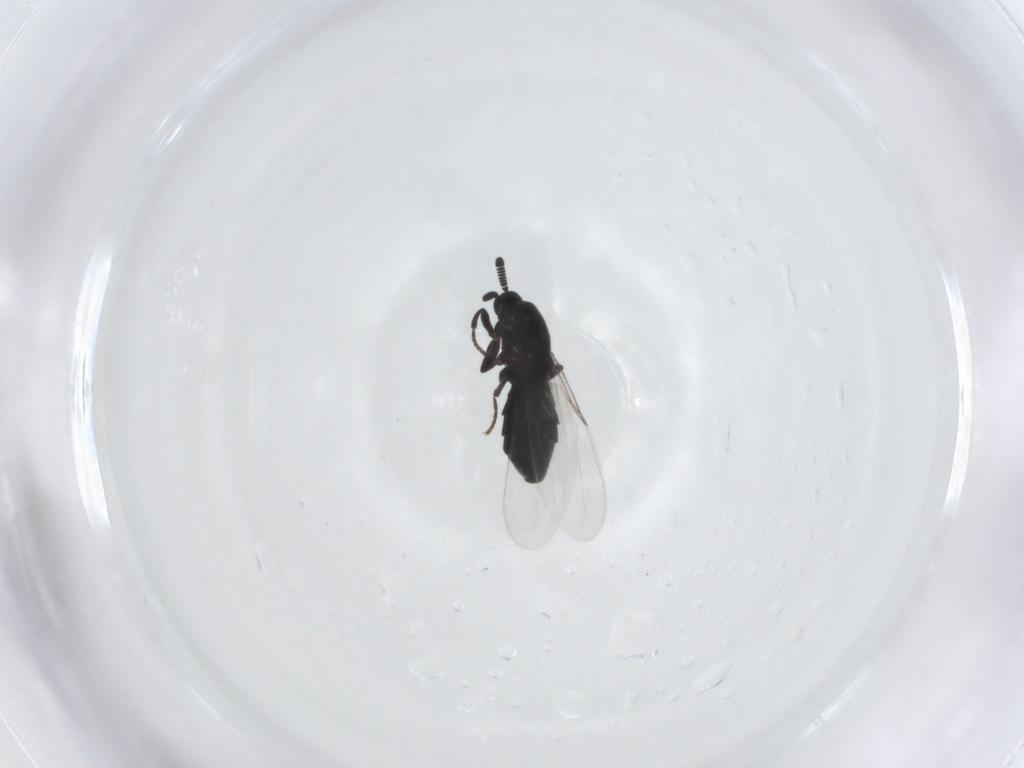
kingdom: Animalia
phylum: Arthropoda
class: Insecta
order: Diptera
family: Scatopsidae
